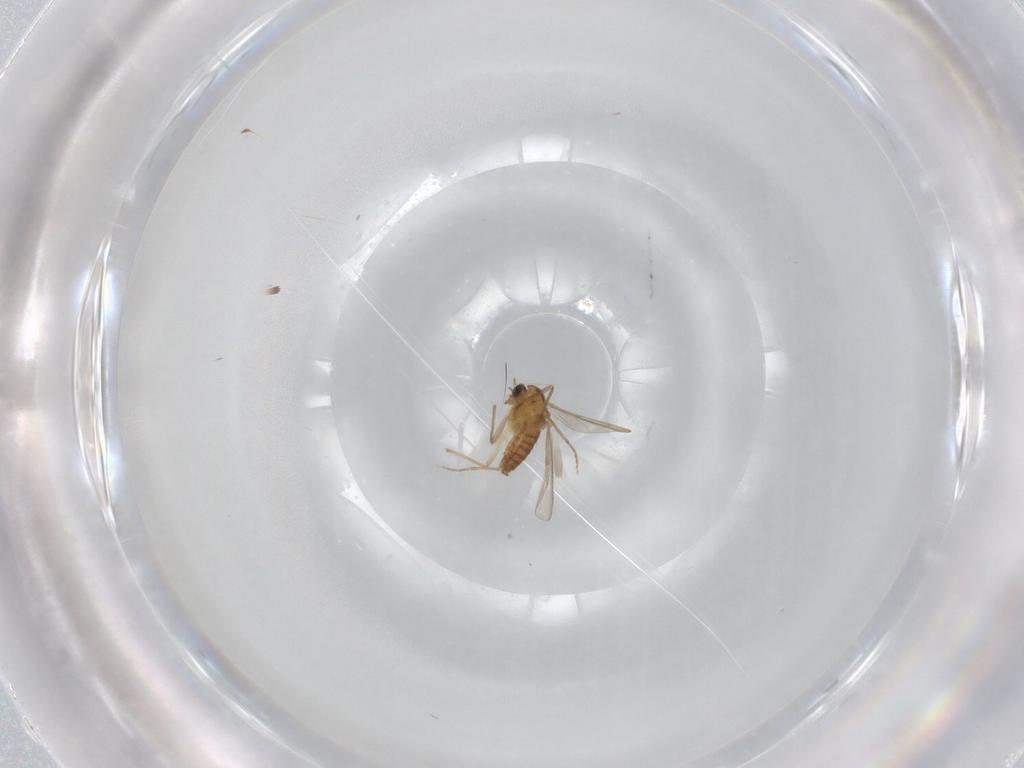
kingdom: Animalia
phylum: Arthropoda
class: Insecta
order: Diptera
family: Chironomidae
